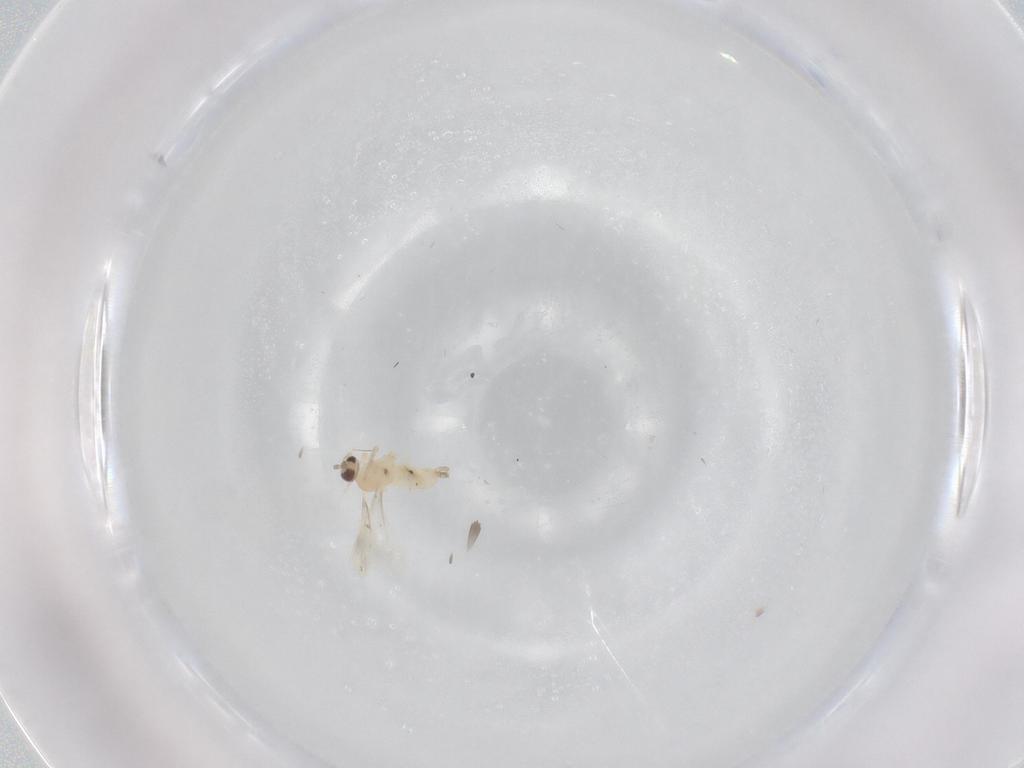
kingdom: Animalia
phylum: Arthropoda
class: Insecta
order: Diptera
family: Cecidomyiidae
